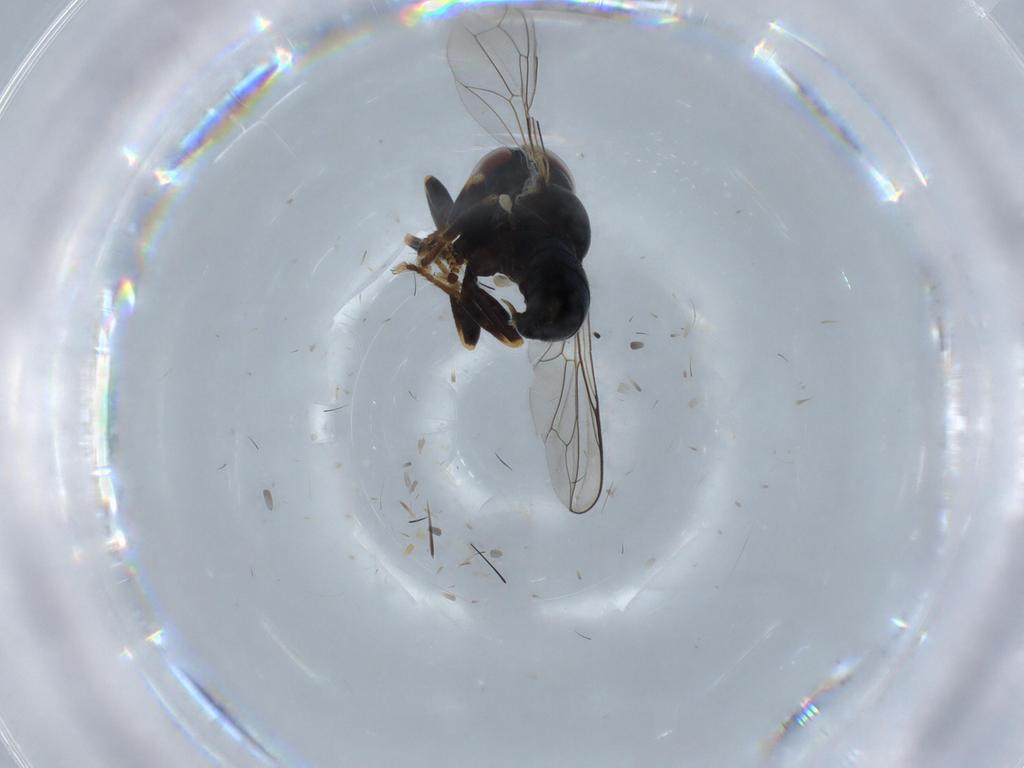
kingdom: Animalia
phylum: Arthropoda
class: Insecta
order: Diptera
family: Pipunculidae
